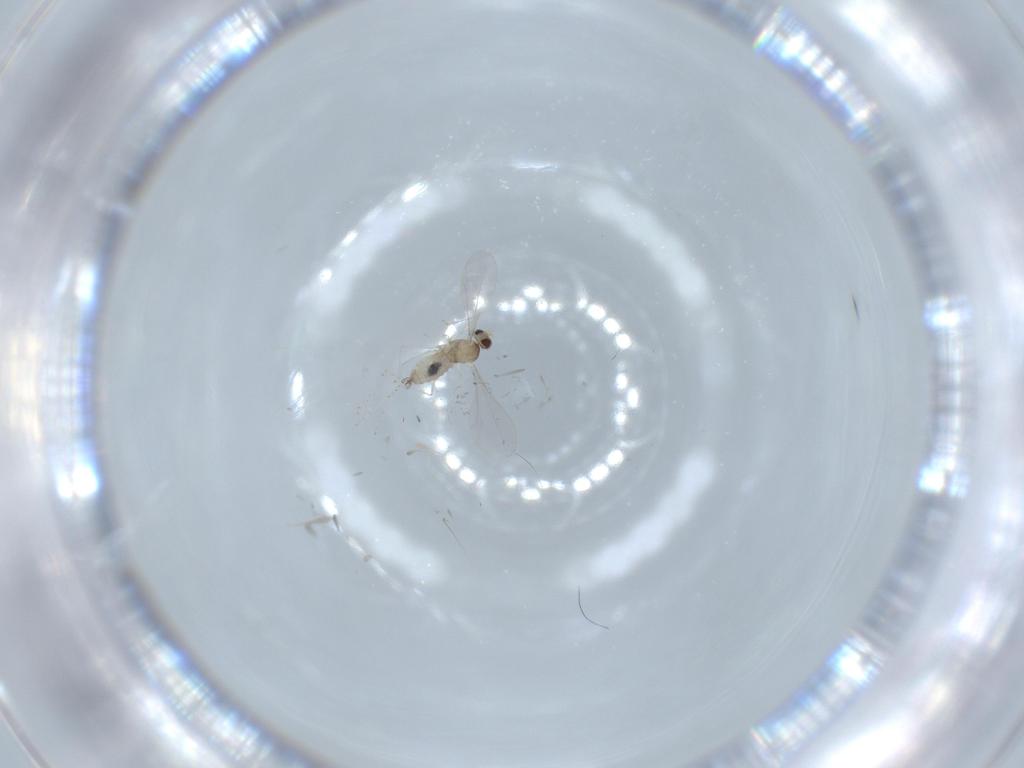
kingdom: Animalia
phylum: Arthropoda
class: Insecta
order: Diptera
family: Cecidomyiidae
